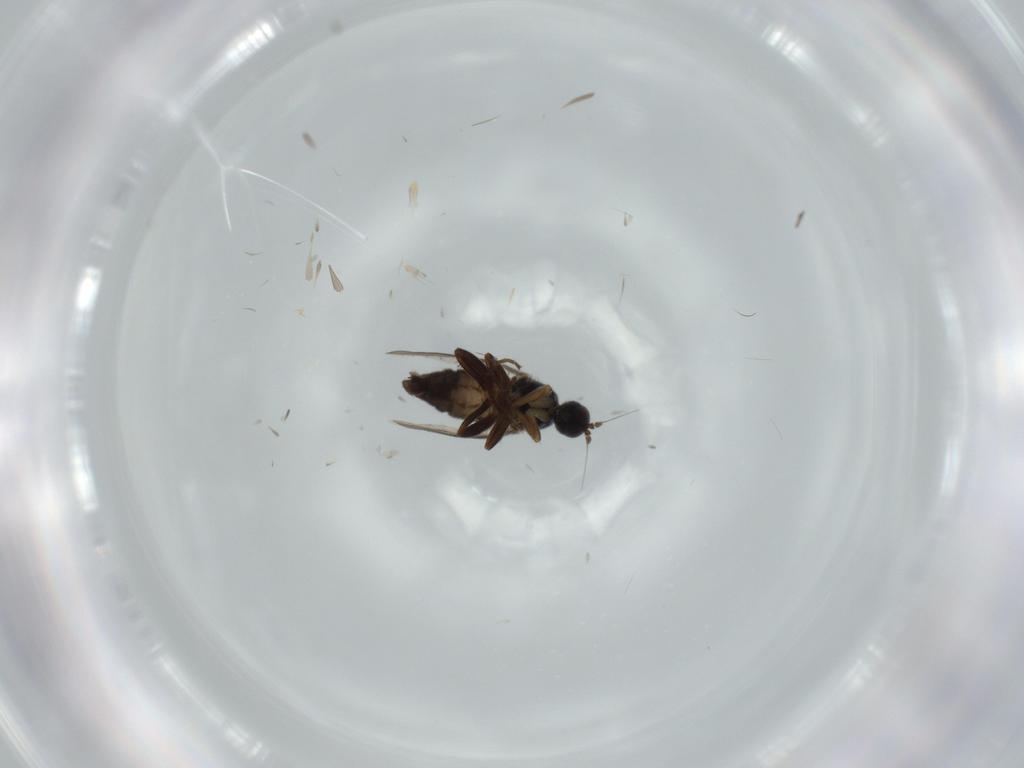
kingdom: Animalia
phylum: Arthropoda
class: Insecta
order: Diptera
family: Hybotidae
